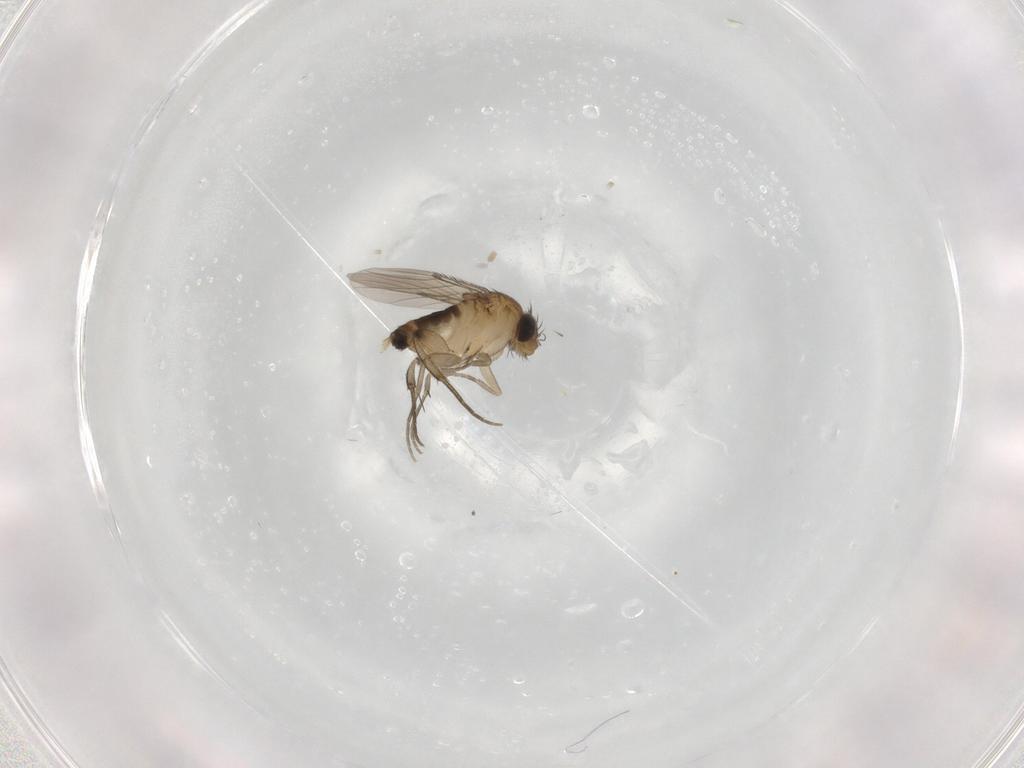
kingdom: Animalia
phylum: Arthropoda
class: Insecta
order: Diptera
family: Phoridae
